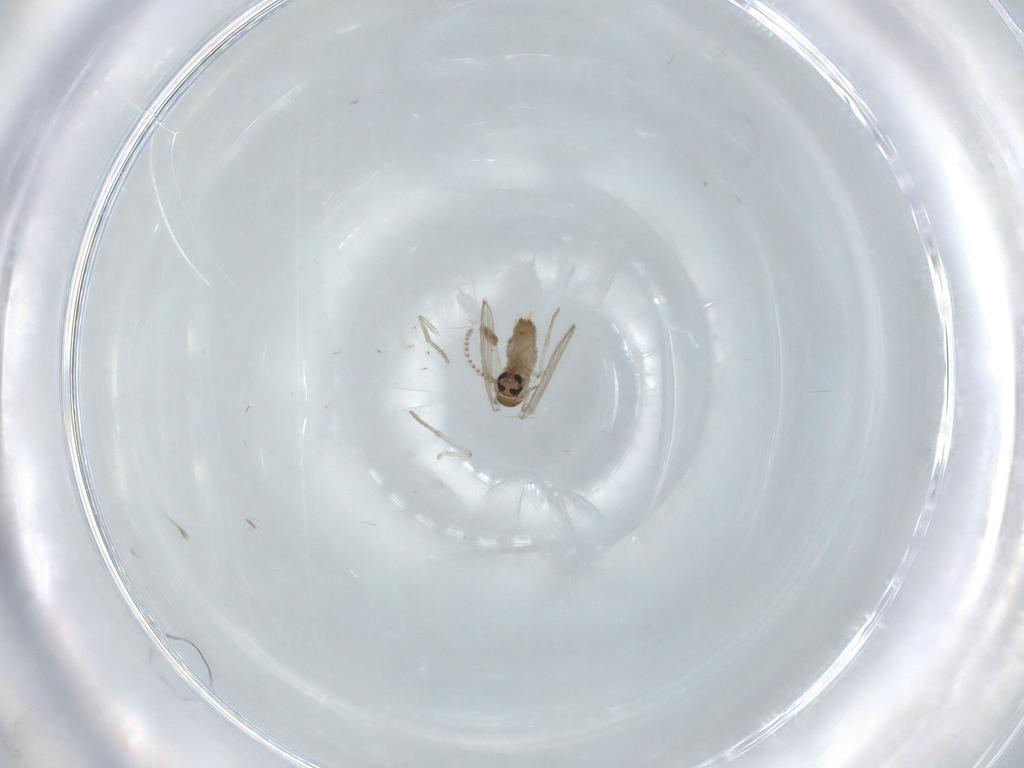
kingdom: Animalia
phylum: Arthropoda
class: Insecta
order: Diptera
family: Psychodidae
